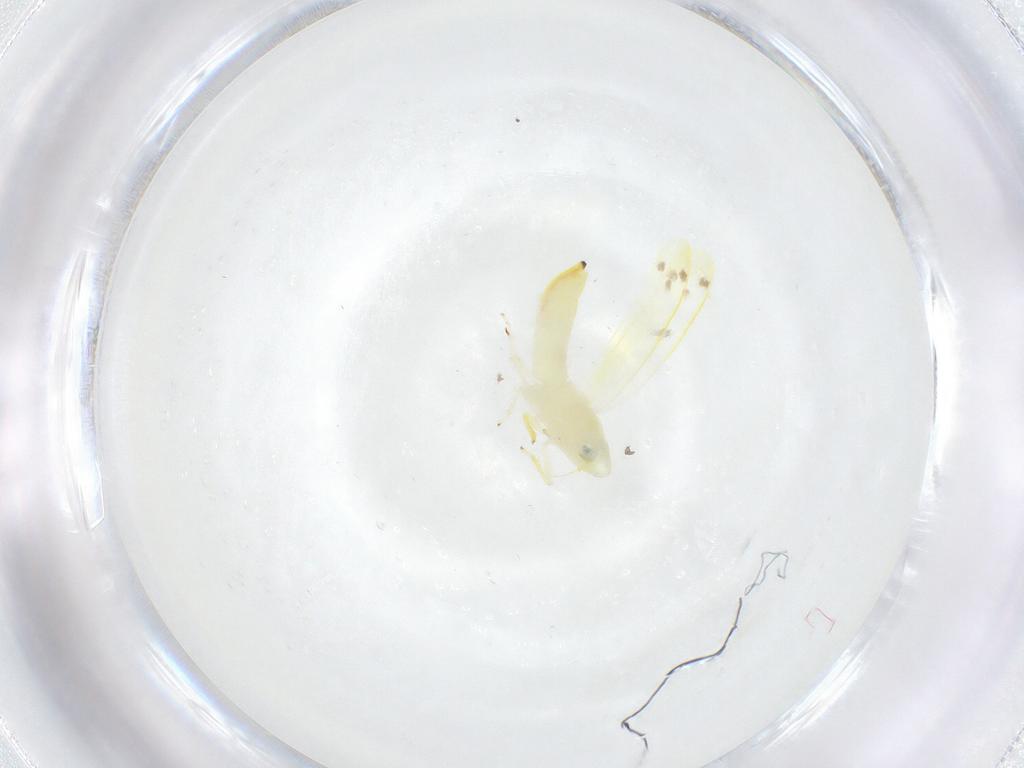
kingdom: Animalia
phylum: Arthropoda
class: Insecta
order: Hemiptera
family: Cicadellidae
